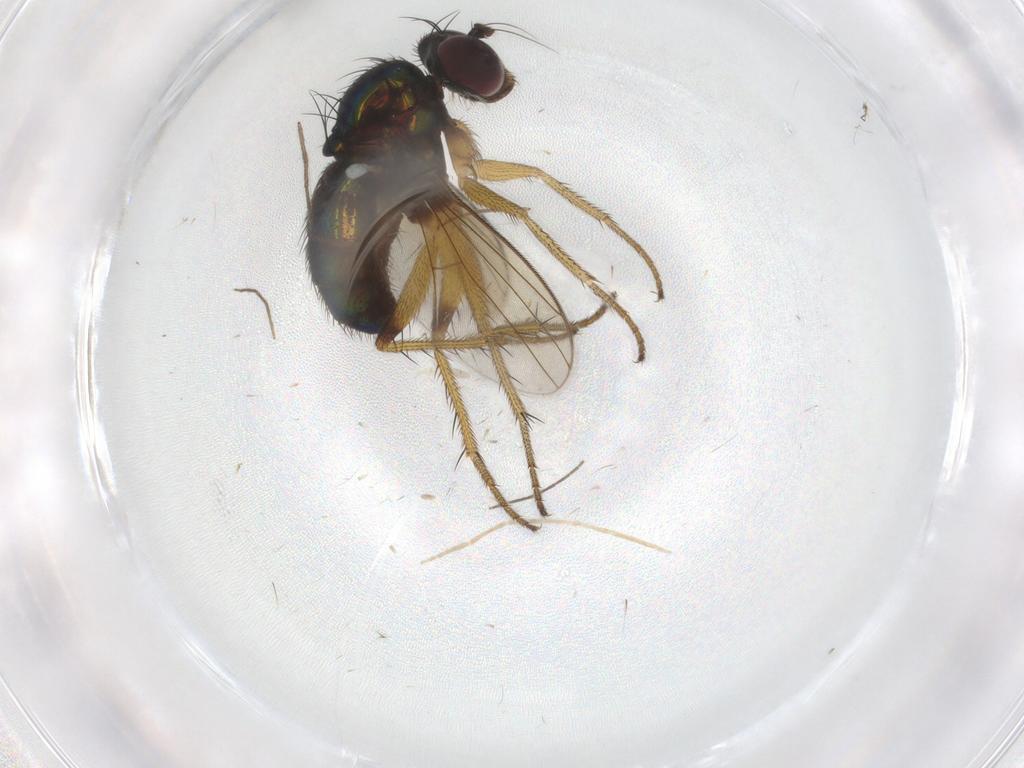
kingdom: Animalia
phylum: Arthropoda
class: Insecta
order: Diptera
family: Dolichopodidae
